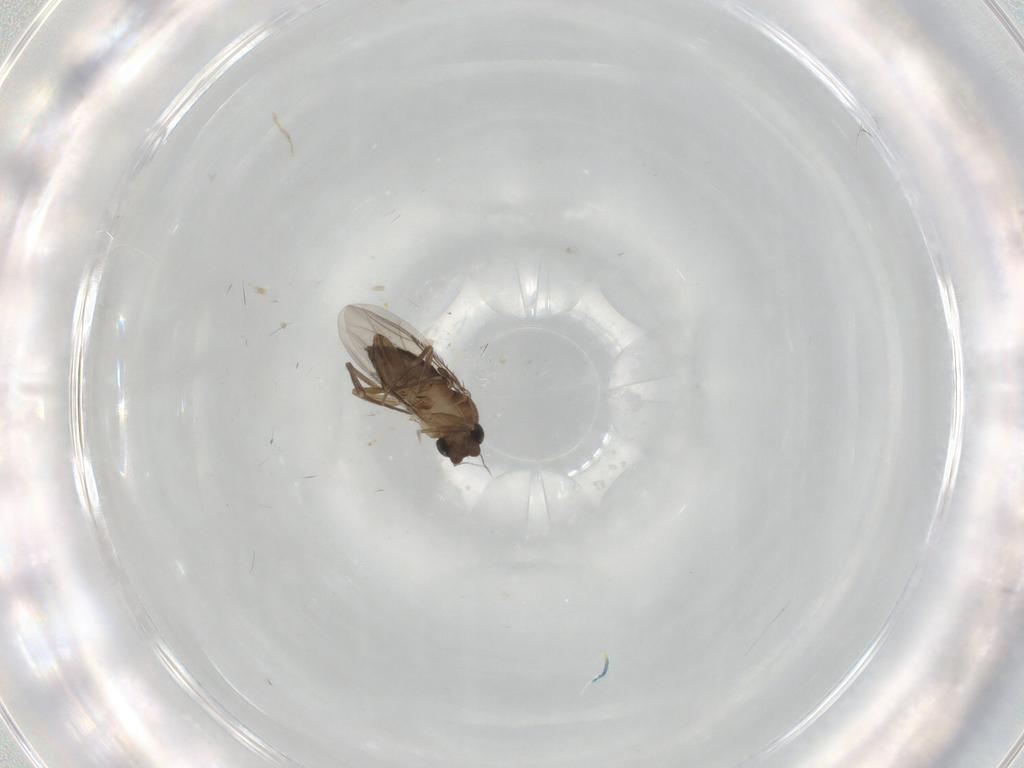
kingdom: Animalia
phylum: Arthropoda
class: Insecta
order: Diptera
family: Phoridae
